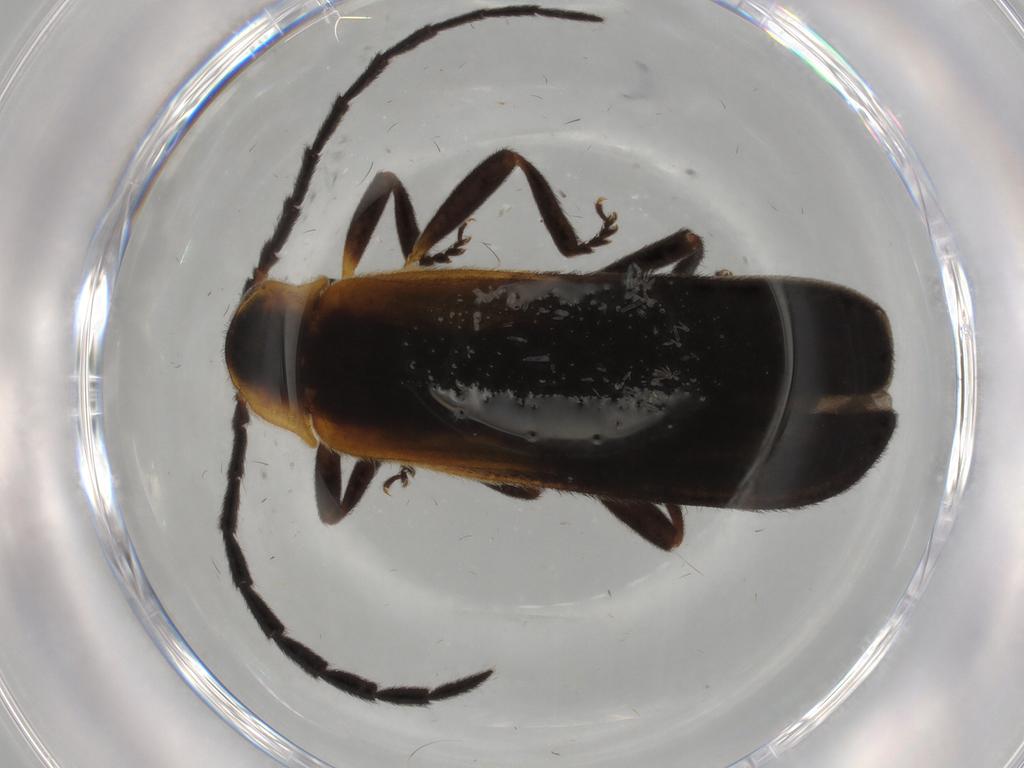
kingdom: Animalia
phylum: Arthropoda
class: Insecta
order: Coleoptera
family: Lycidae
